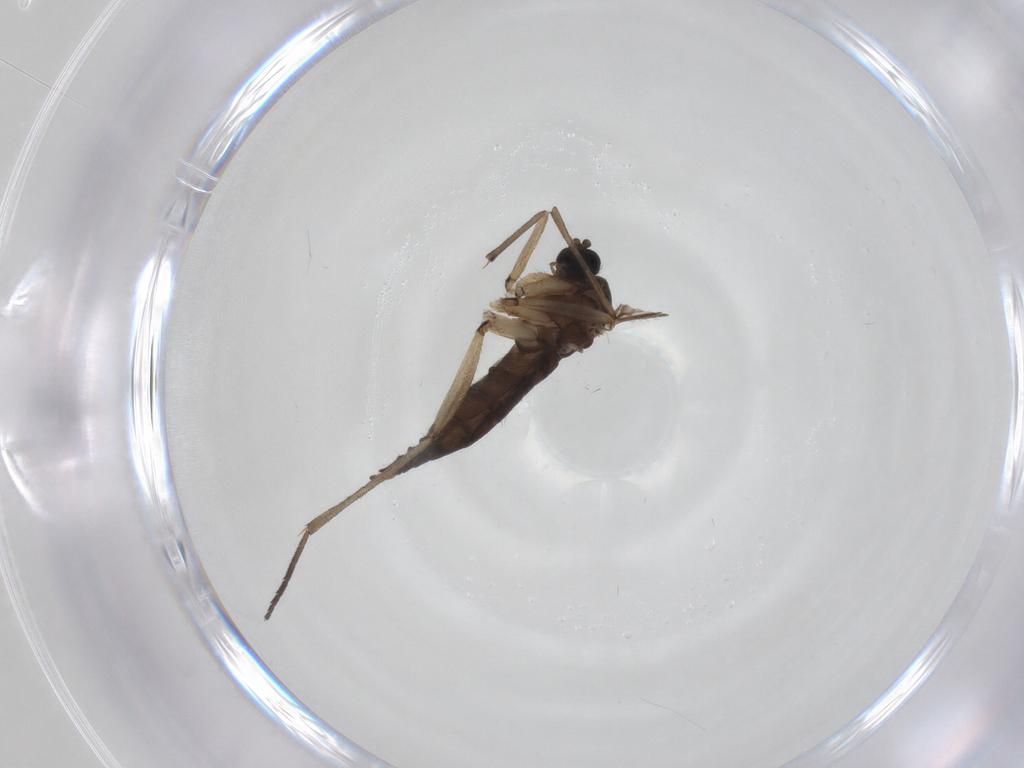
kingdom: Animalia
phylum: Arthropoda
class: Insecta
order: Diptera
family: Sciaridae
